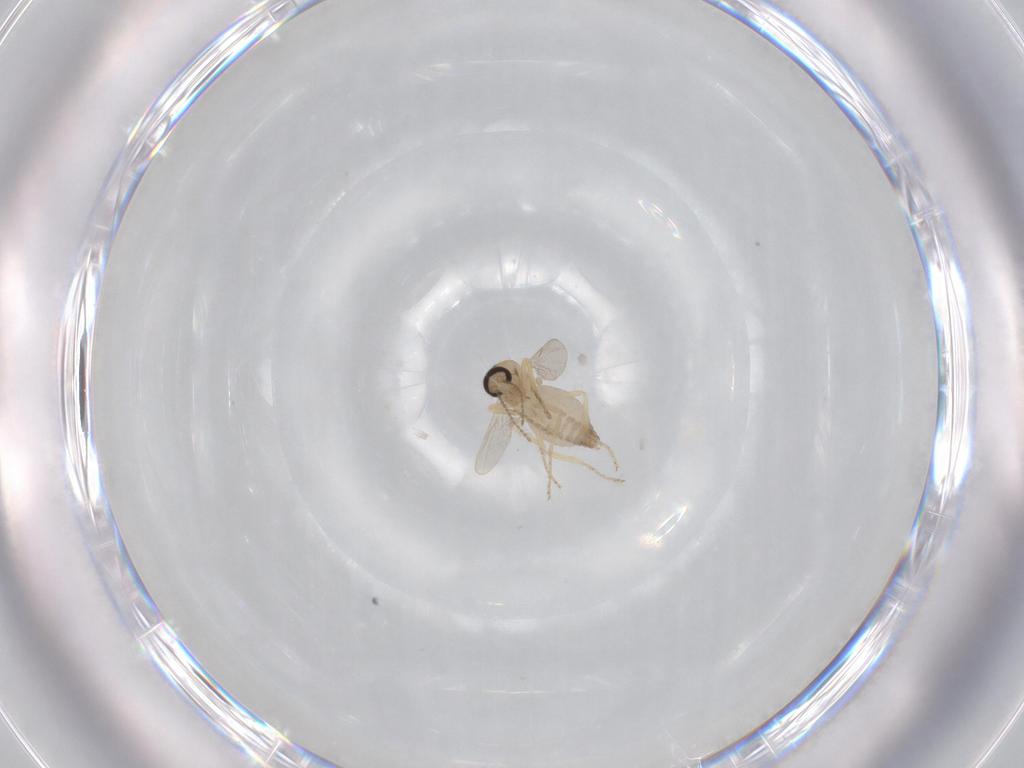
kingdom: Animalia
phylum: Arthropoda
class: Insecta
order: Diptera
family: Ceratopogonidae
